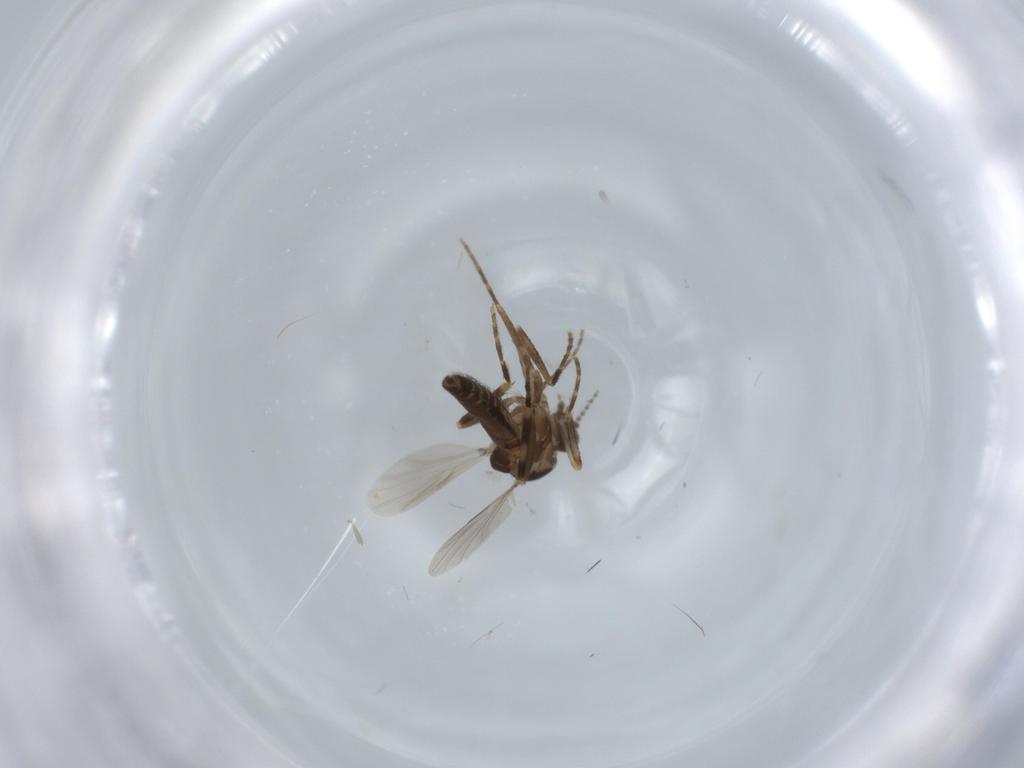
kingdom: Animalia
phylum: Arthropoda
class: Insecta
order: Diptera
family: Ceratopogonidae
